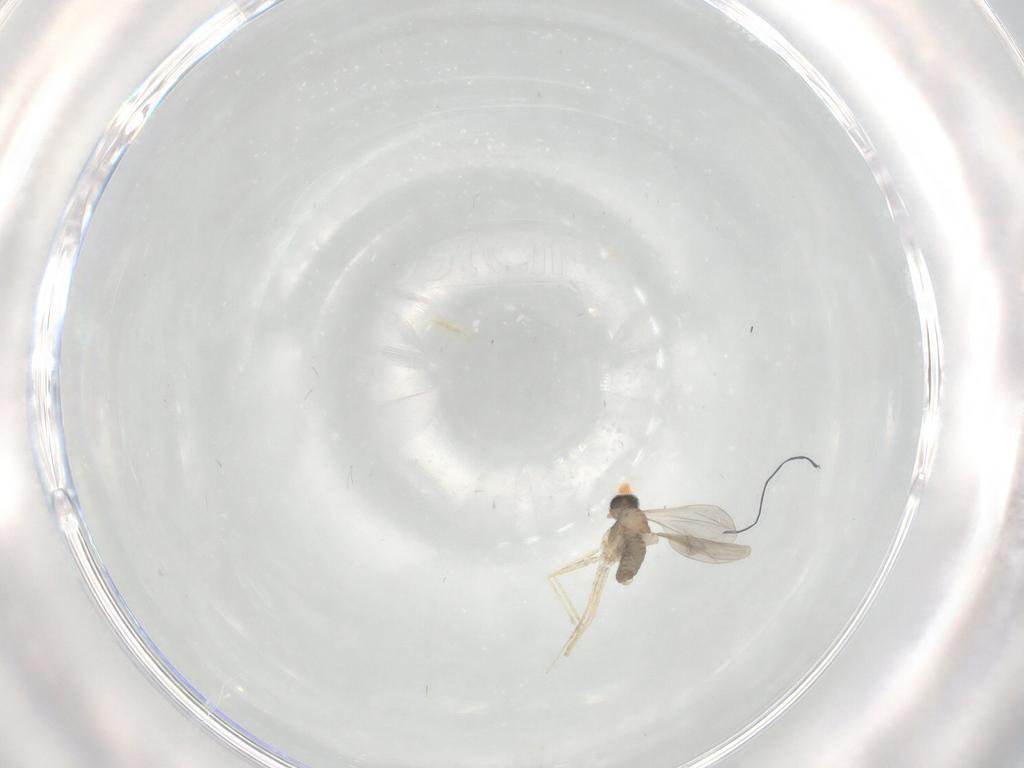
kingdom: Animalia
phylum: Arthropoda
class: Insecta
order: Diptera
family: Cecidomyiidae
